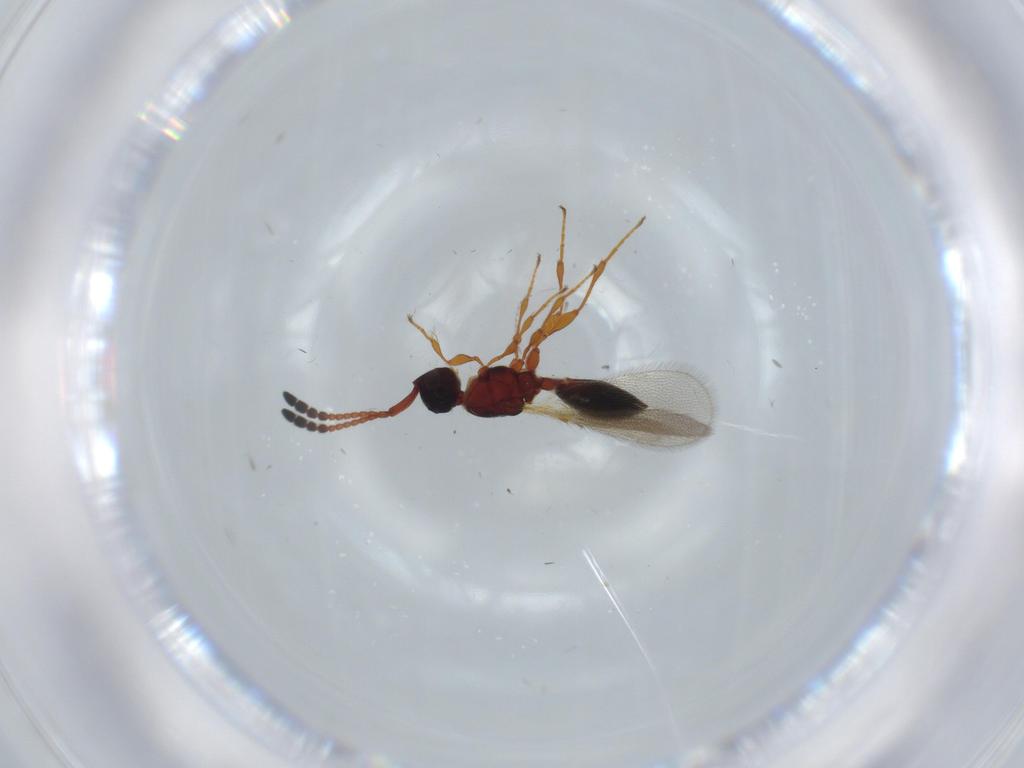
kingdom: Animalia
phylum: Arthropoda
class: Insecta
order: Hymenoptera
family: Diapriidae
